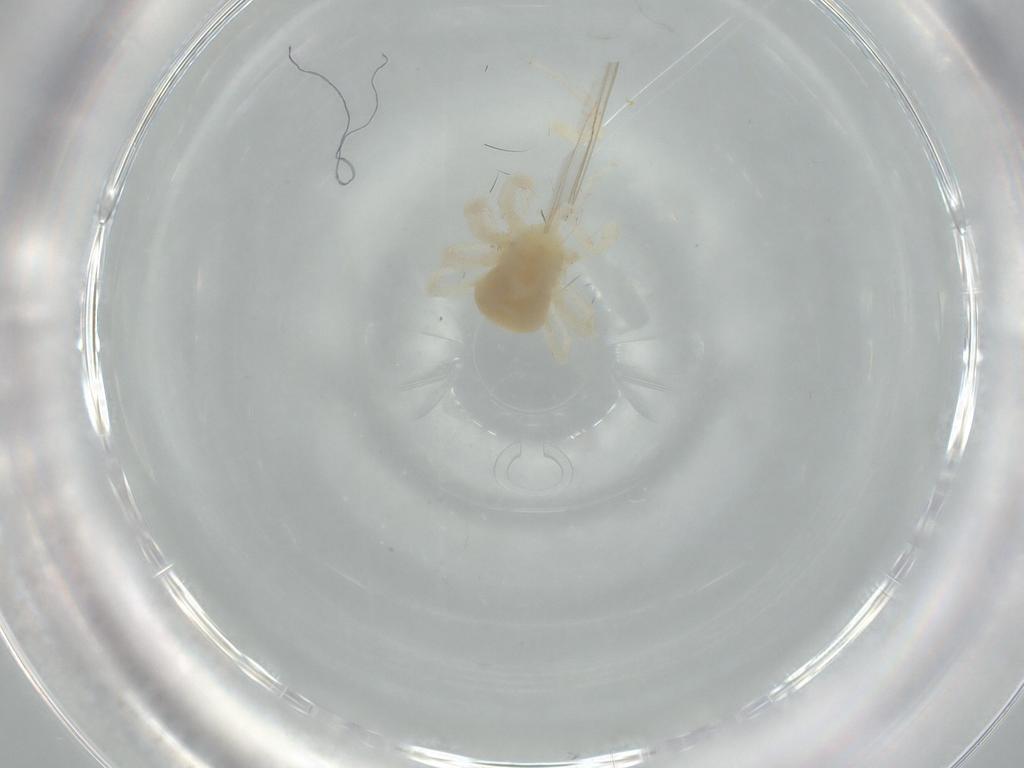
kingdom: Animalia
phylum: Arthropoda
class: Arachnida
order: Trombidiformes
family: Anystidae
